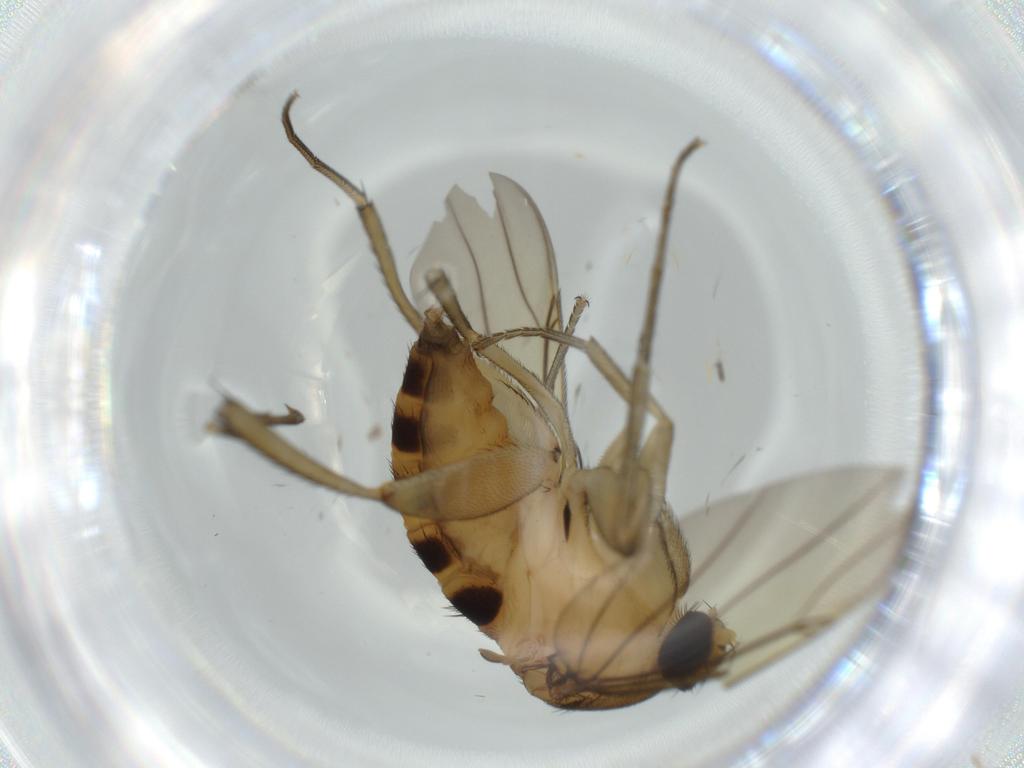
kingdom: Animalia
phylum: Arthropoda
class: Insecta
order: Diptera
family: Phoridae
